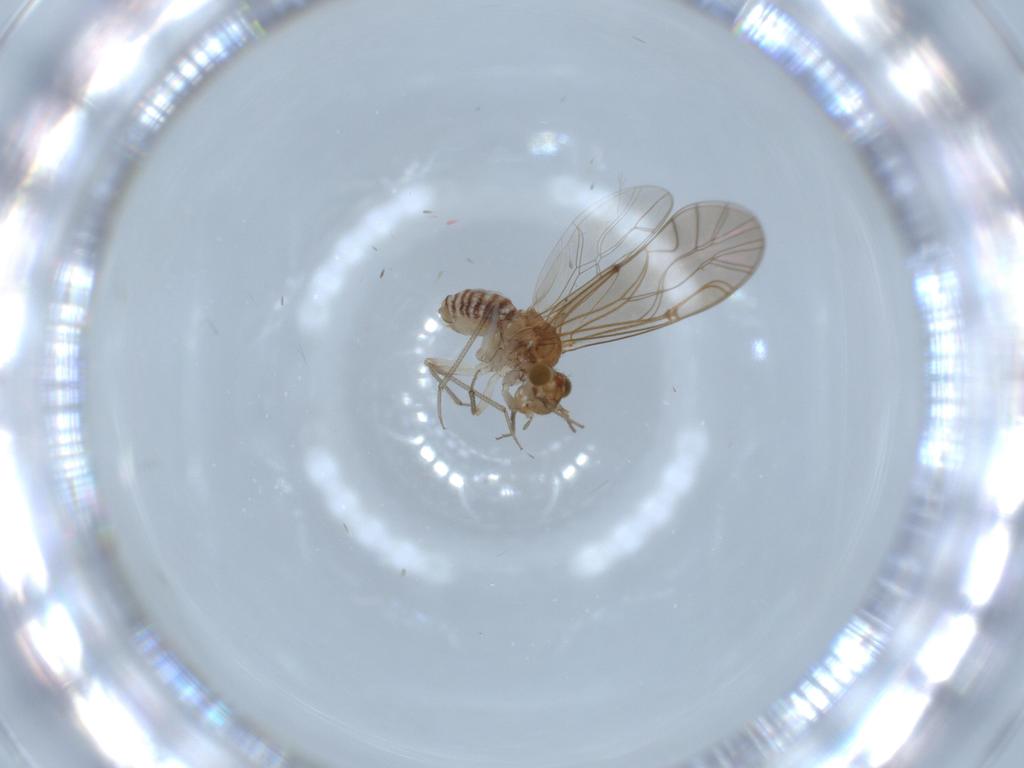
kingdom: Animalia
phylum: Arthropoda
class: Insecta
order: Psocodea
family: Lachesillidae
